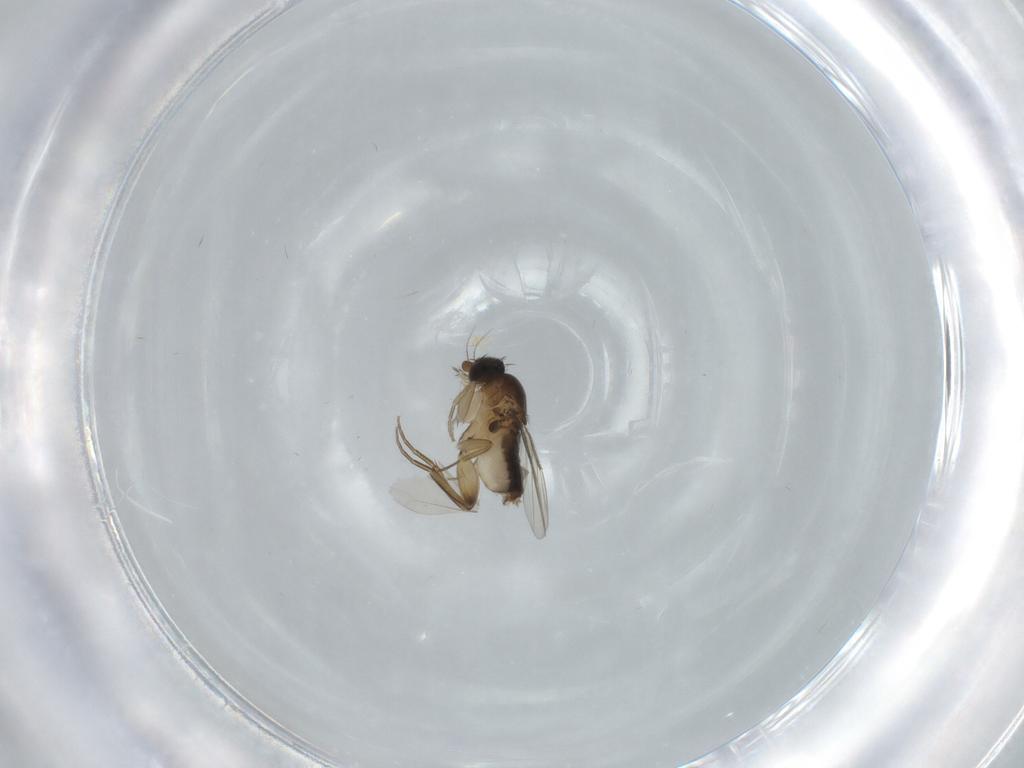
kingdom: Animalia
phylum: Arthropoda
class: Insecta
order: Diptera
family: Phoridae
